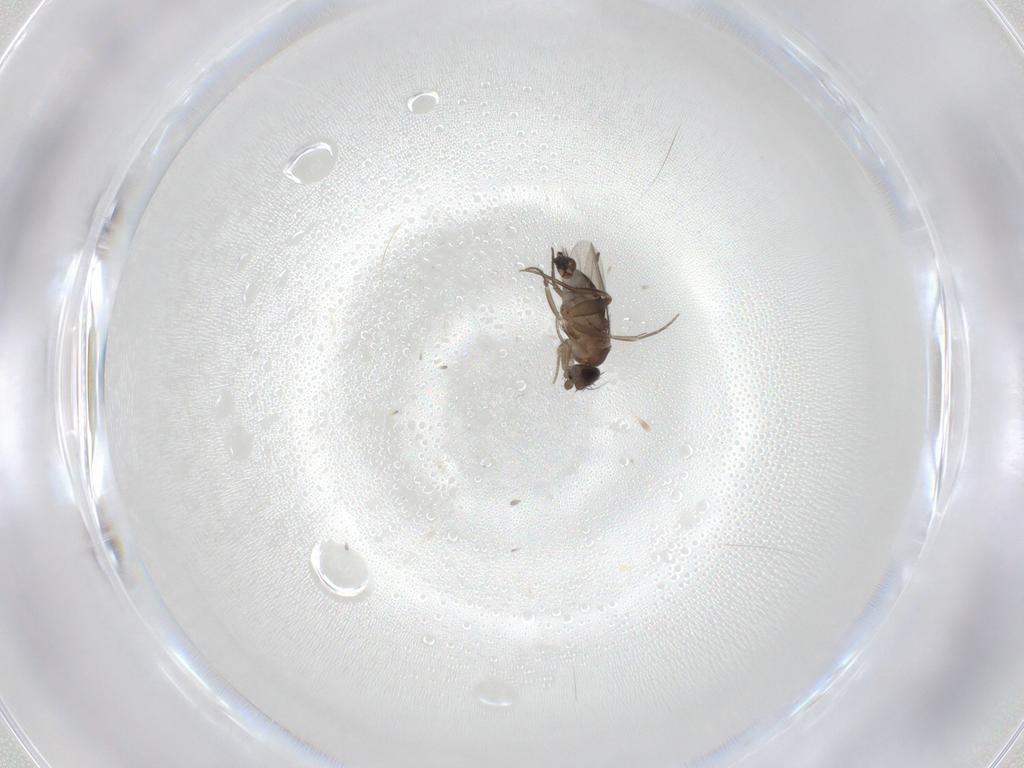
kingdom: Animalia
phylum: Arthropoda
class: Insecta
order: Diptera
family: Phoridae
